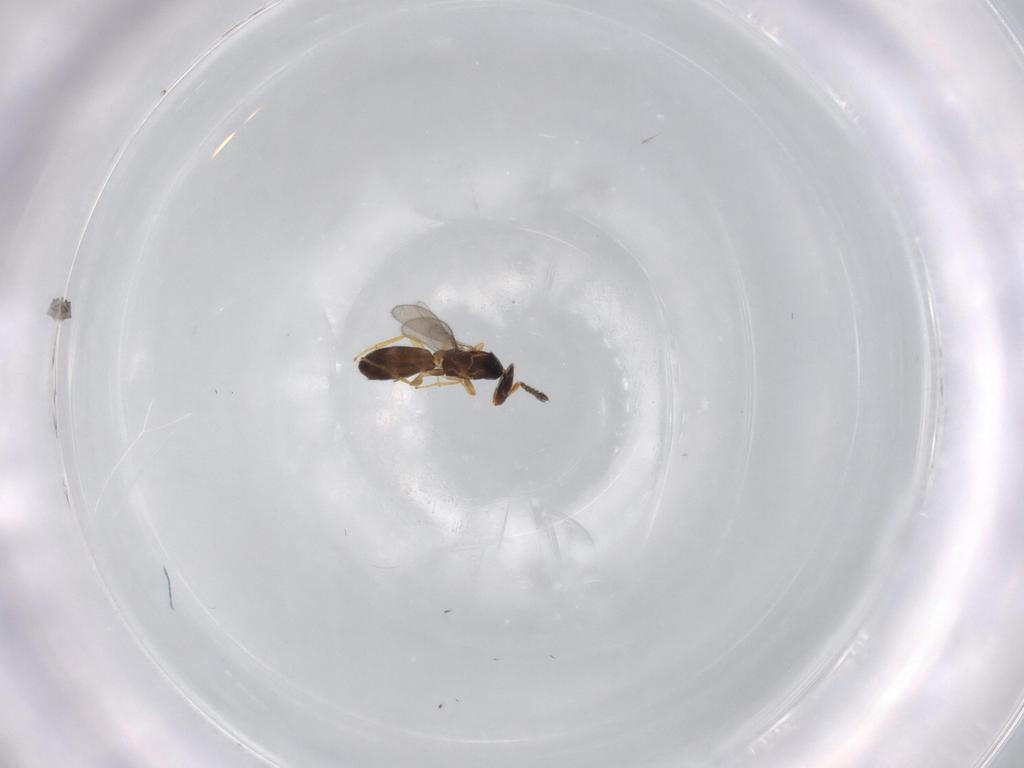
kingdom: Animalia
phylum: Arthropoda
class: Insecta
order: Hymenoptera
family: Eulophidae
